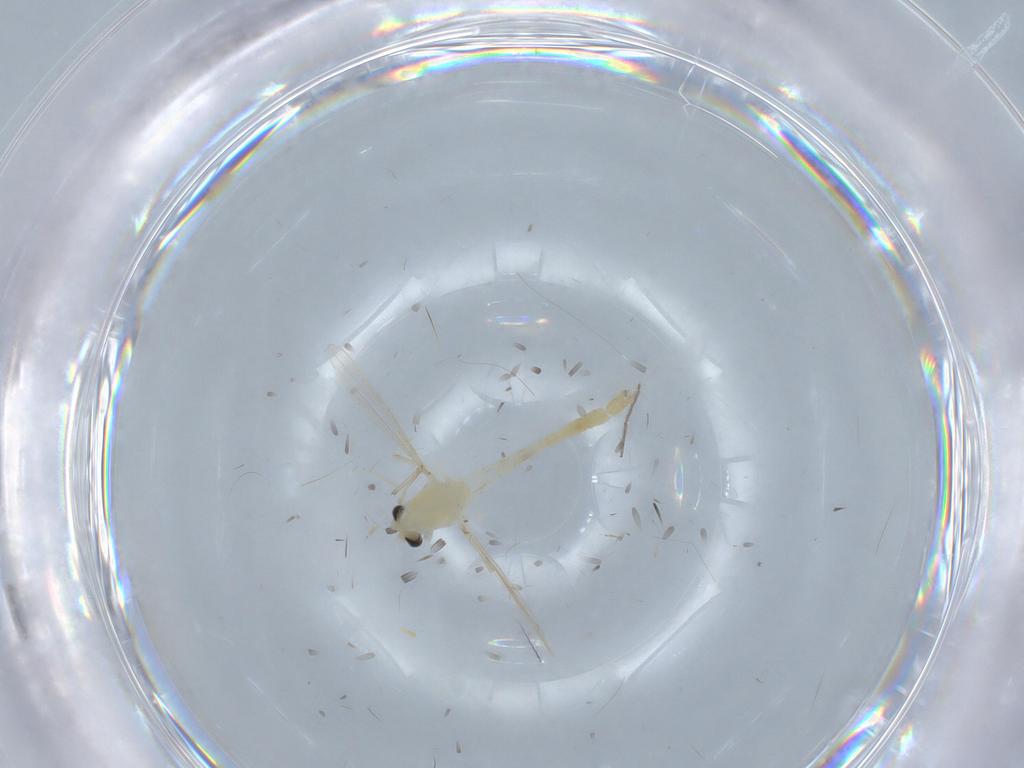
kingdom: Animalia
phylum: Arthropoda
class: Insecta
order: Diptera
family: Chironomidae
